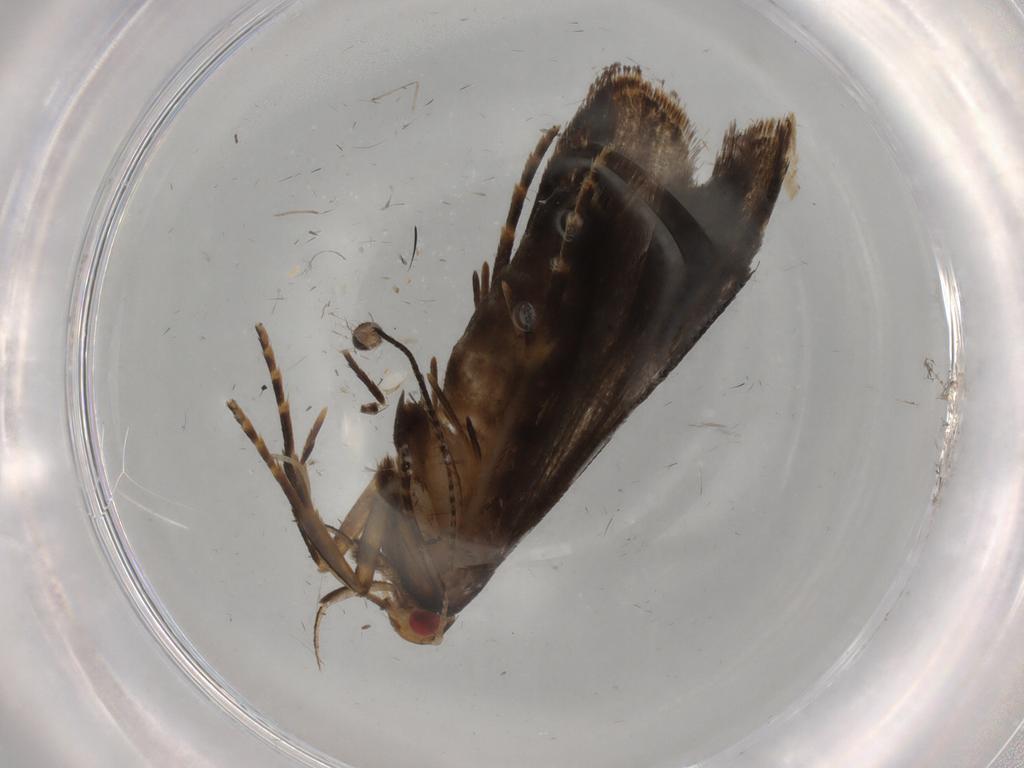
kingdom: Animalia
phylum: Arthropoda
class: Insecta
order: Lepidoptera
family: Gelechiidae
